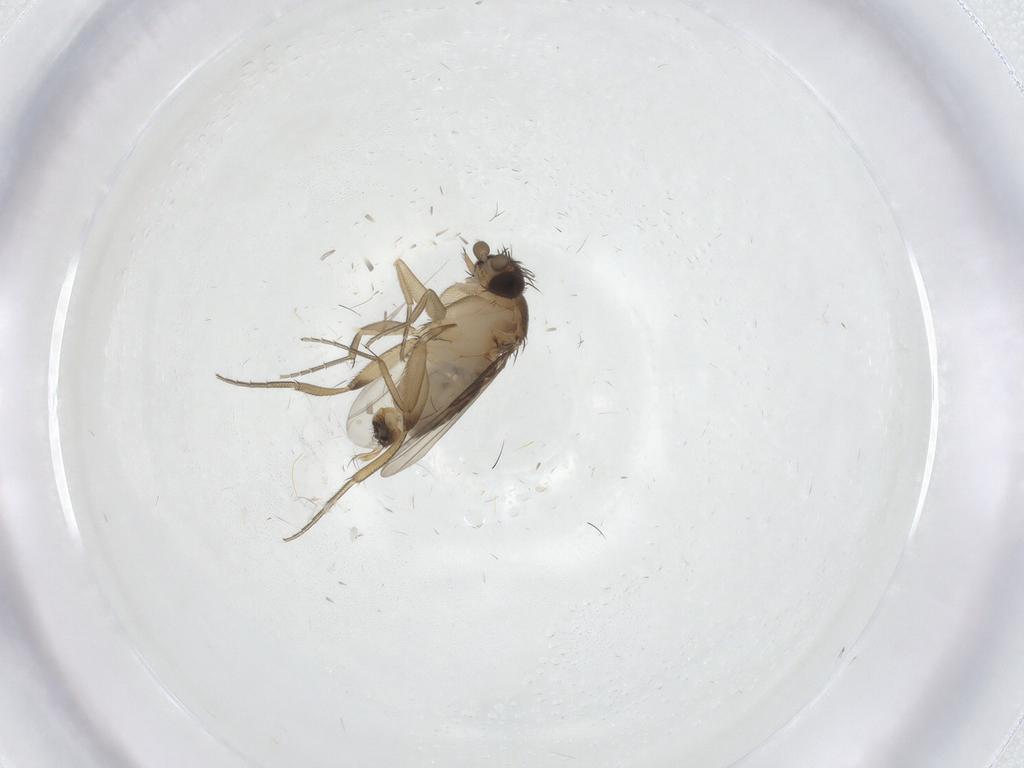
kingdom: Animalia
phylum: Arthropoda
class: Insecta
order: Diptera
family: Phoridae
